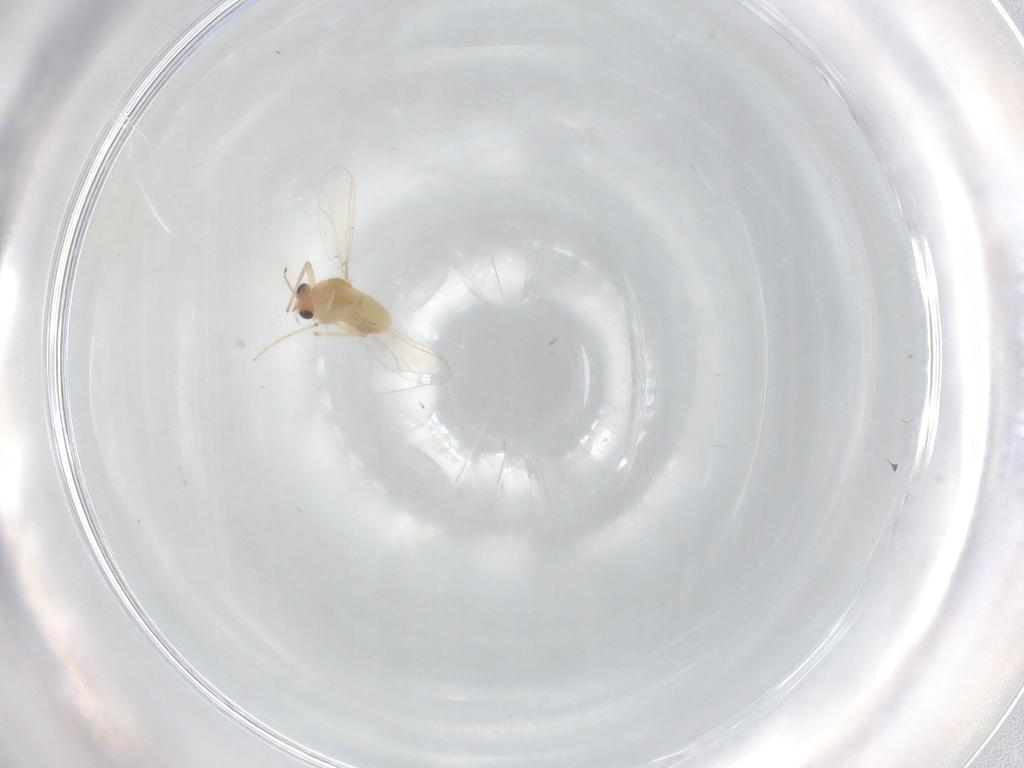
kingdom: Animalia
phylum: Arthropoda
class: Insecta
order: Diptera
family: Chironomidae
